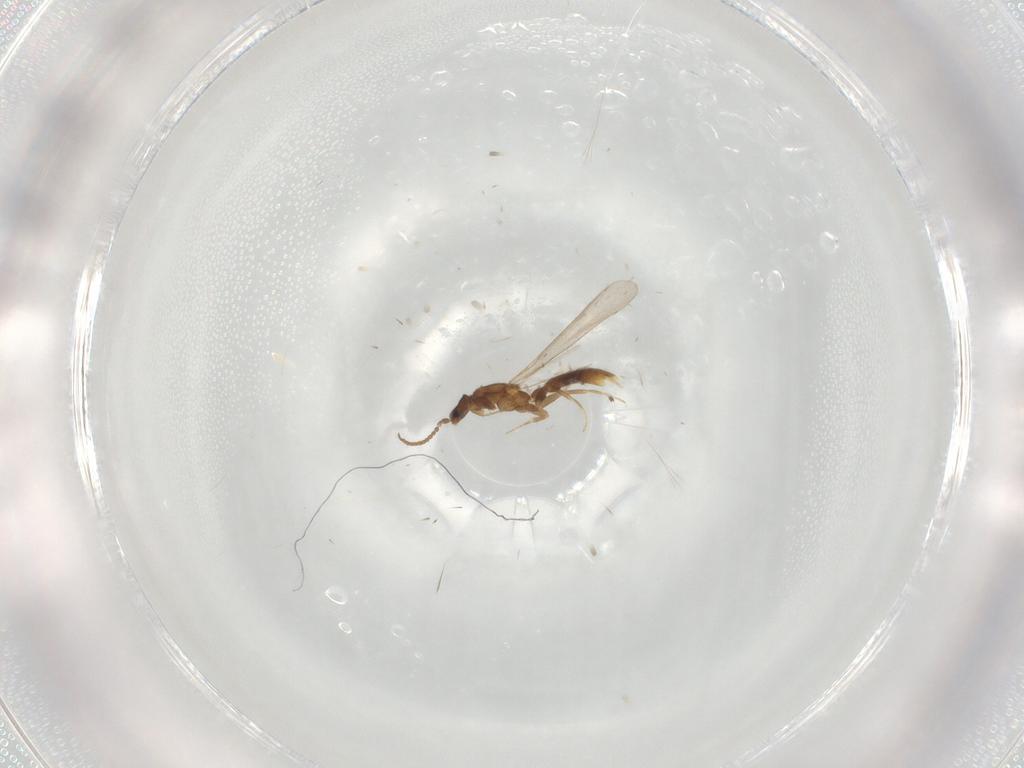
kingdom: Animalia
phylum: Arthropoda
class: Insecta
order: Hymenoptera
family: Formicidae
